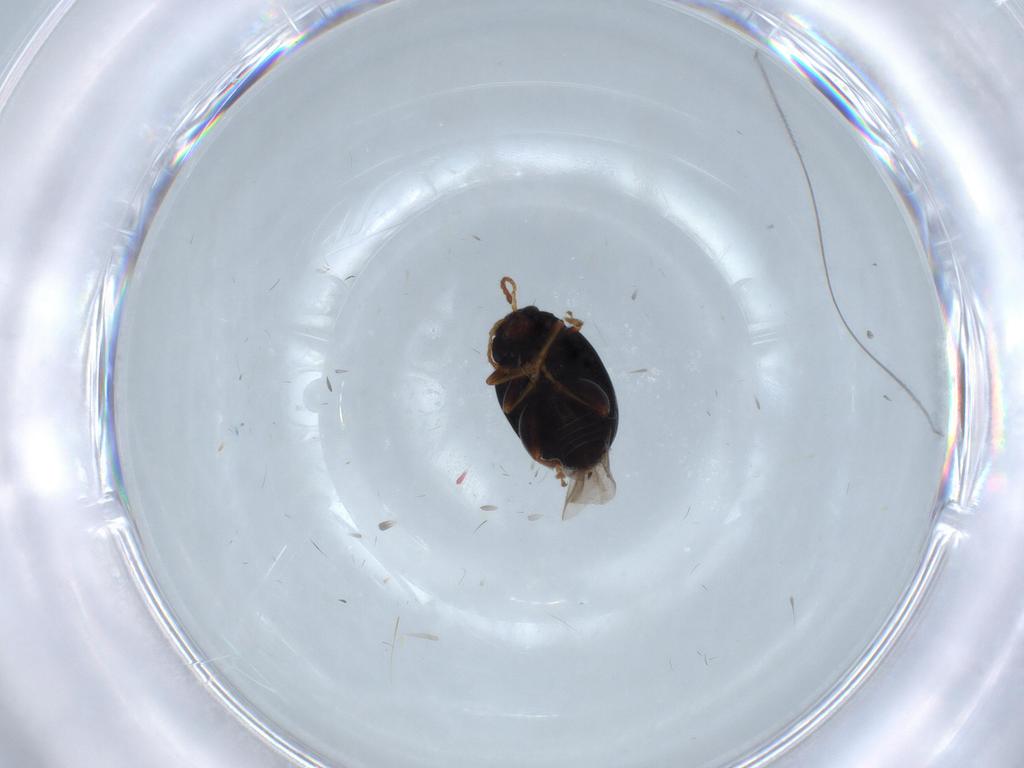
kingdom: Animalia
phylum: Arthropoda
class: Insecta
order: Coleoptera
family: Chrysomelidae
